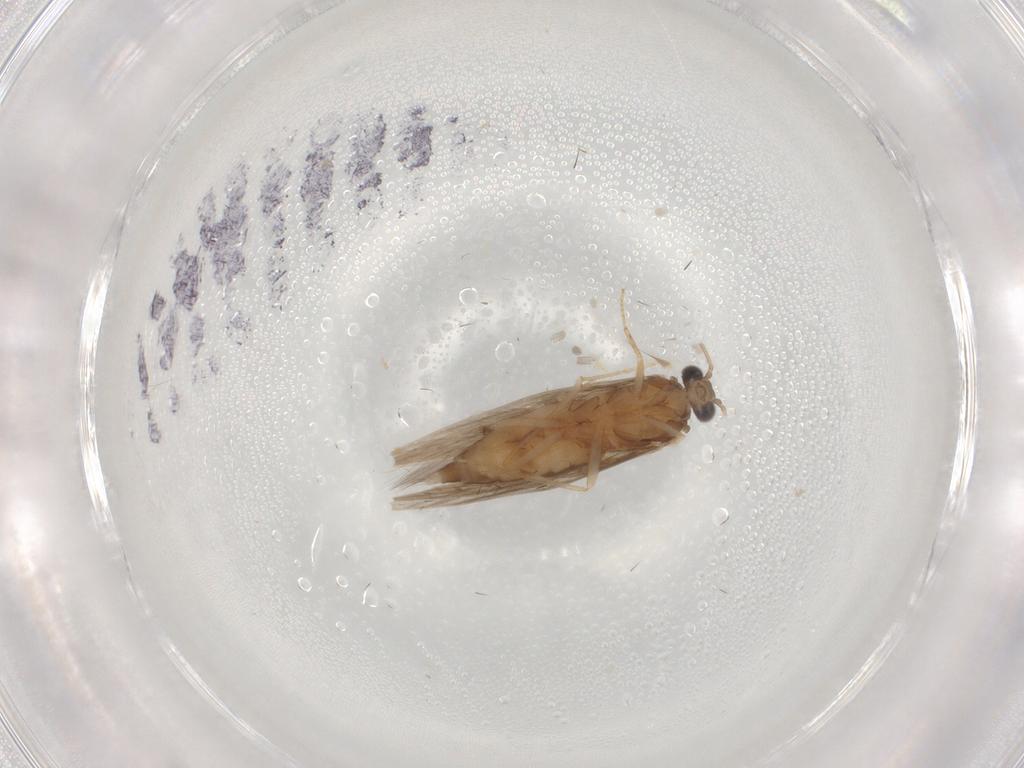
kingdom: Animalia
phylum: Arthropoda
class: Insecta
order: Trichoptera
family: Hydroptilidae
